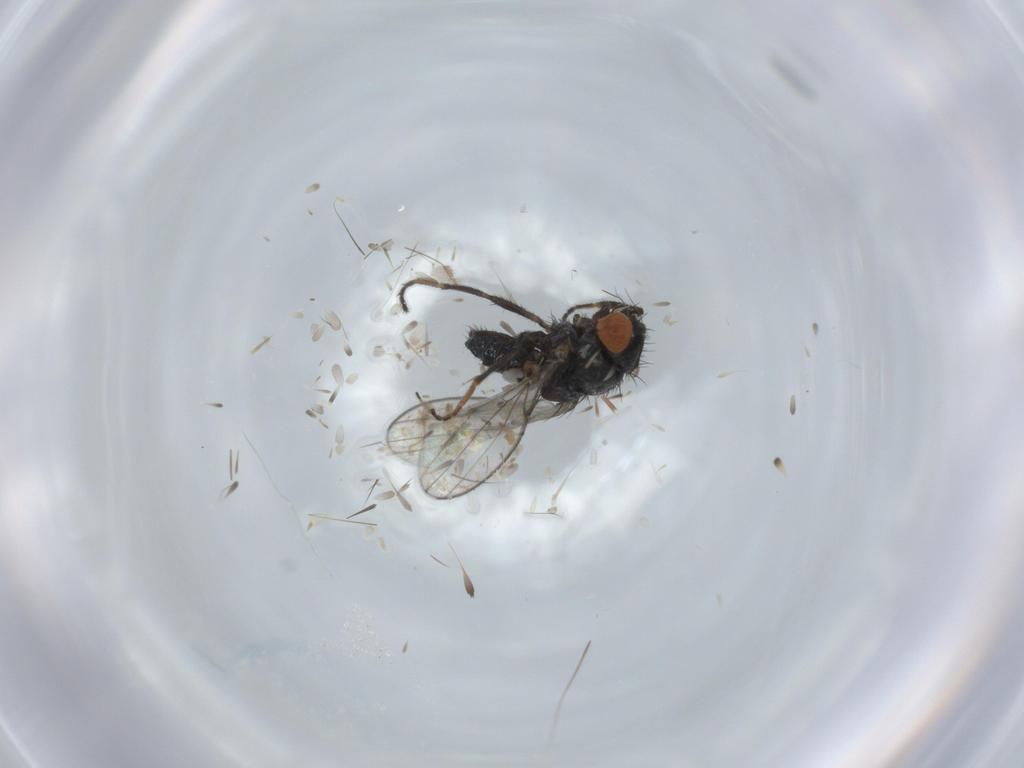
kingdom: Animalia
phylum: Arthropoda
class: Insecta
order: Diptera
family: Milichiidae
